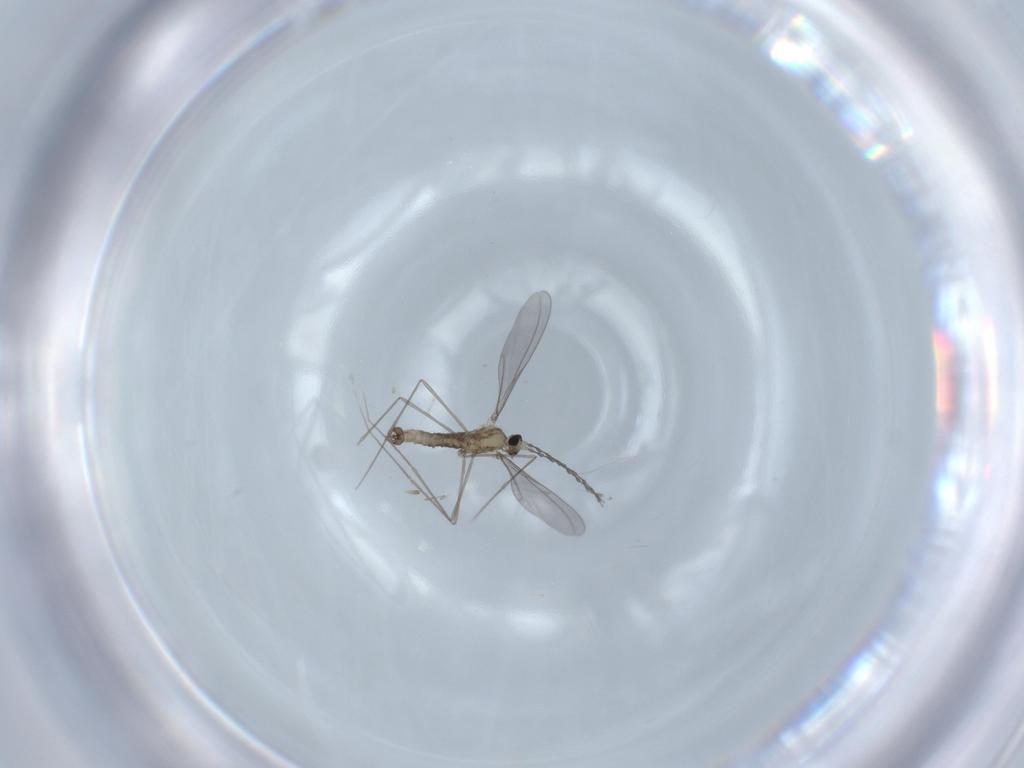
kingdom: Animalia
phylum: Arthropoda
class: Insecta
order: Diptera
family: Cecidomyiidae
